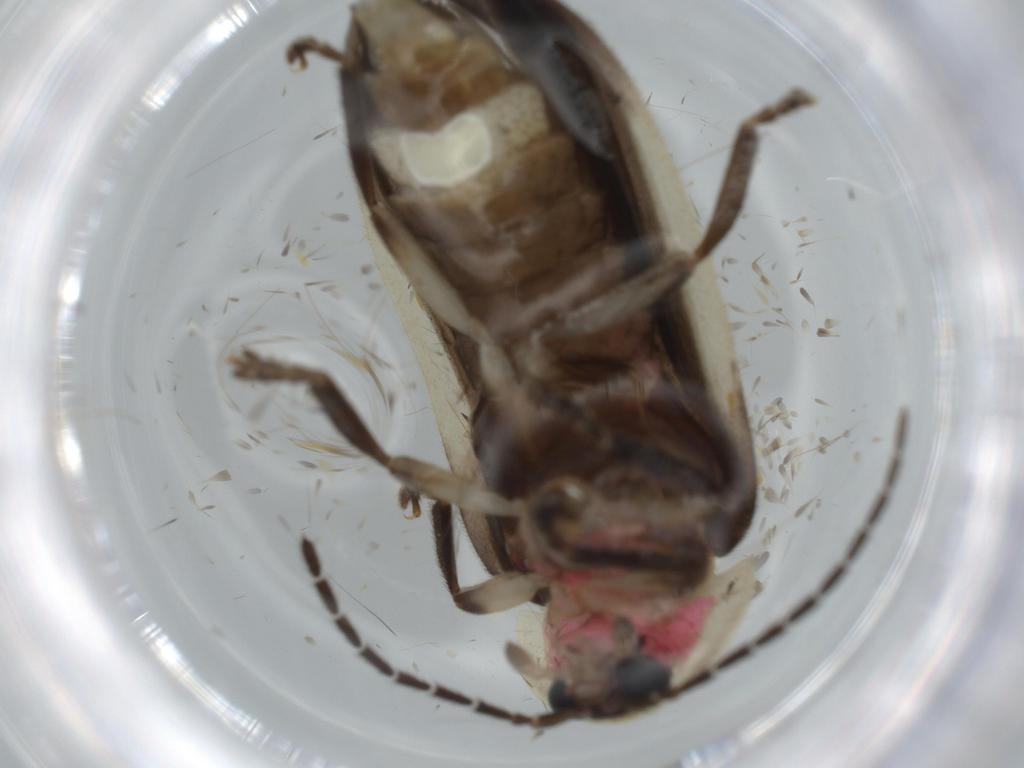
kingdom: Animalia
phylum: Arthropoda
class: Insecta
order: Coleoptera
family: Lampyridae
